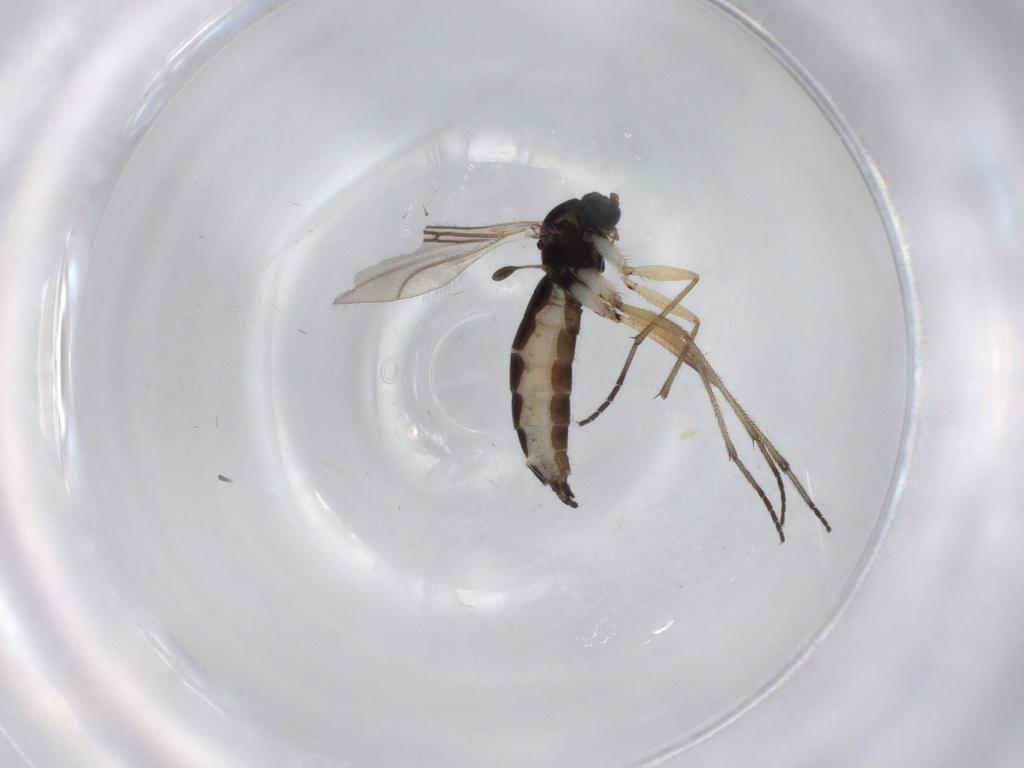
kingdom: Animalia
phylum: Arthropoda
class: Insecta
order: Diptera
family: Sciaridae
